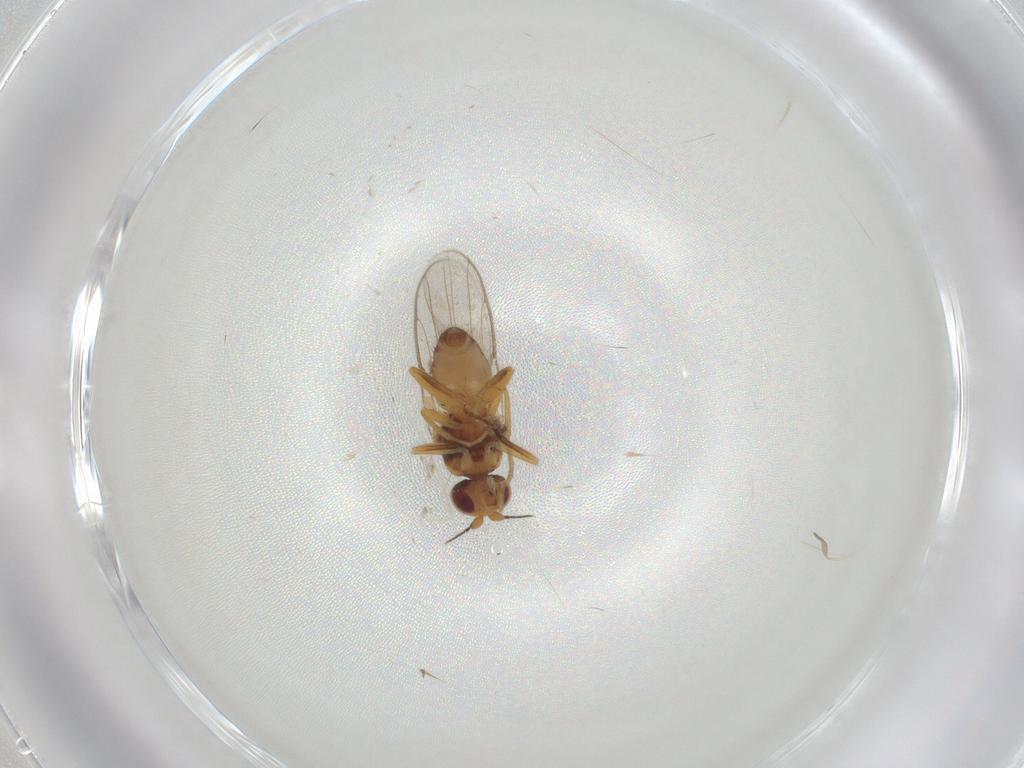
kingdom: Animalia
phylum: Arthropoda
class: Insecta
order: Diptera
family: Glossinidae
